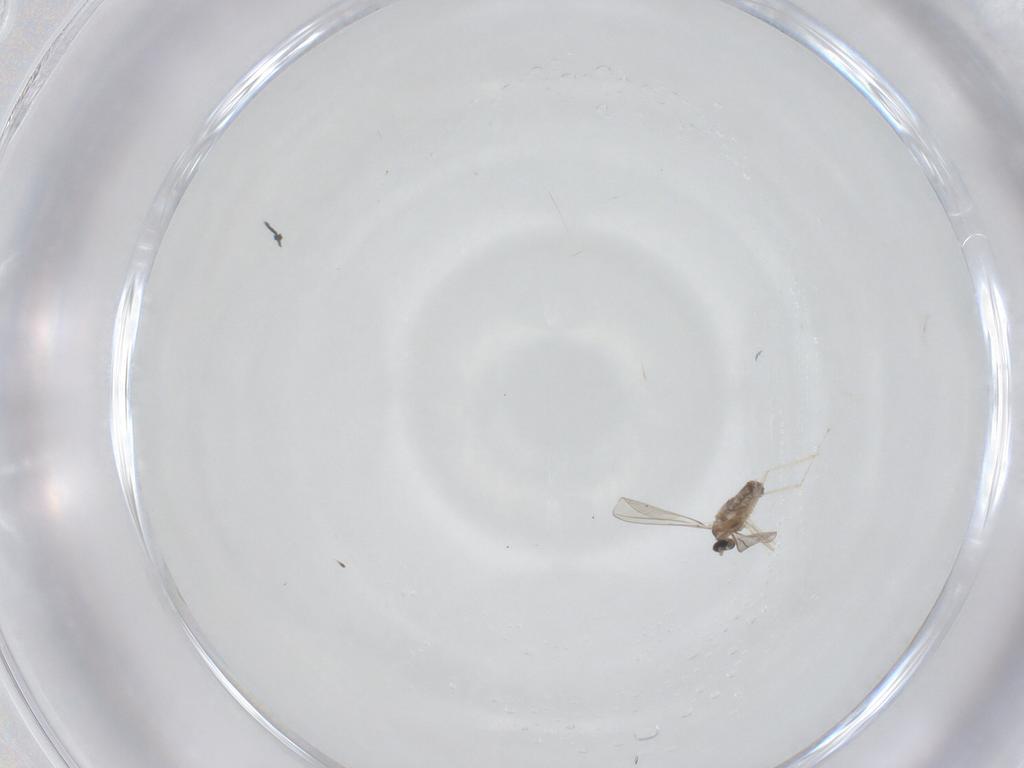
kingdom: Animalia
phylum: Arthropoda
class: Insecta
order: Diptera
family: Cecidomyiidae
